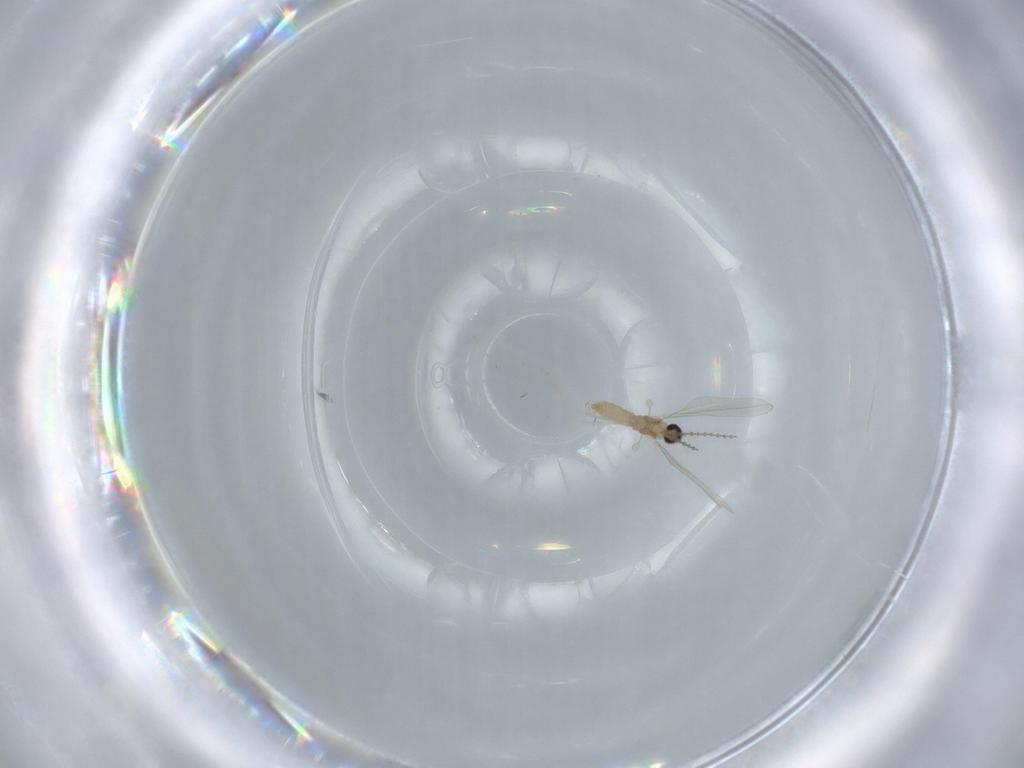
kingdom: Animalia
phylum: Arthropoda
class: Insecta
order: Diptera
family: Cecidomyiidae
